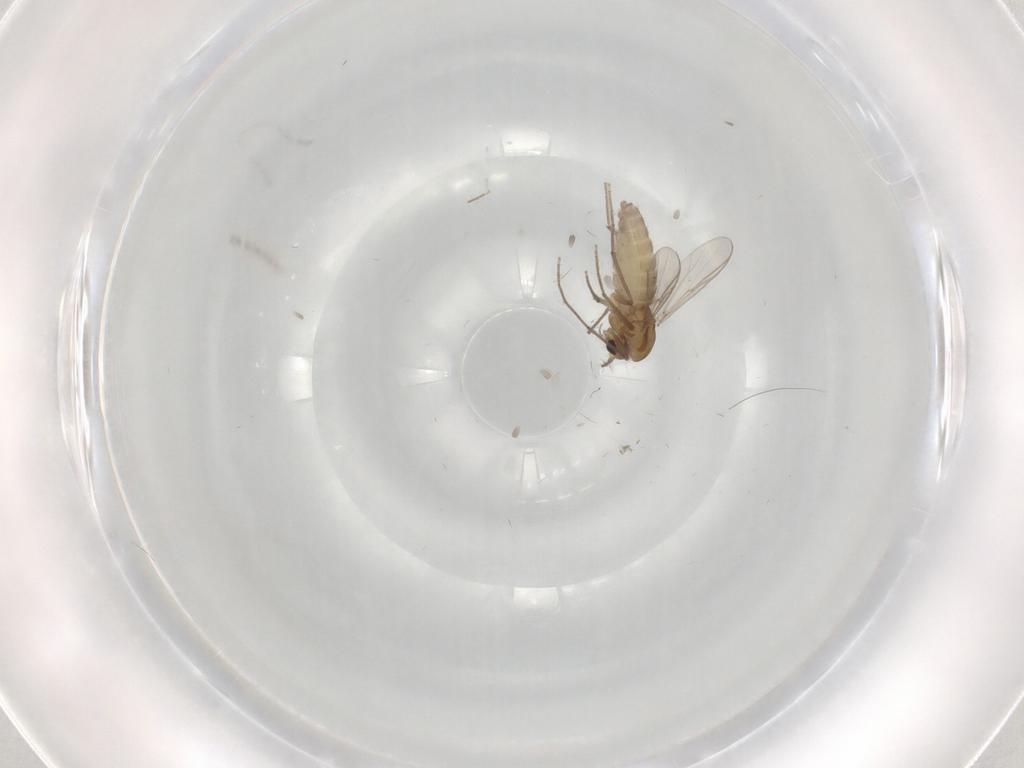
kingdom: Animalia
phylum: Arthropoda
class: Insecta
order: Diptera
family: Chironomidae
